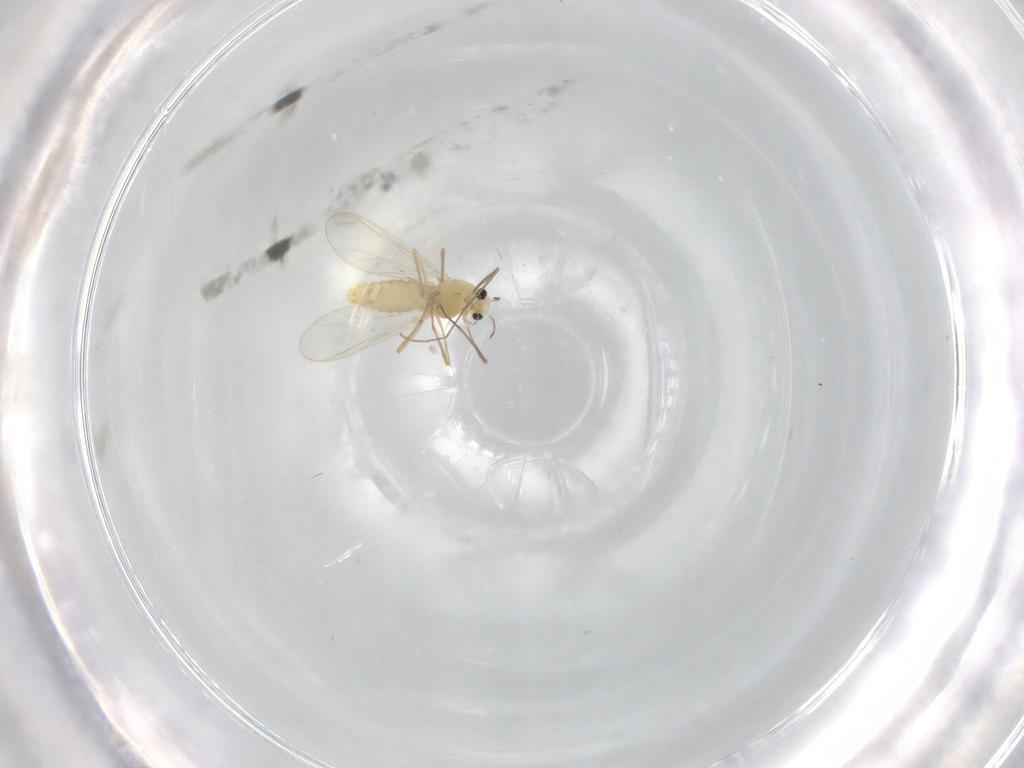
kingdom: Animalia
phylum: Arthropoda
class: Insecta
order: Diptera
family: Chironomidae
